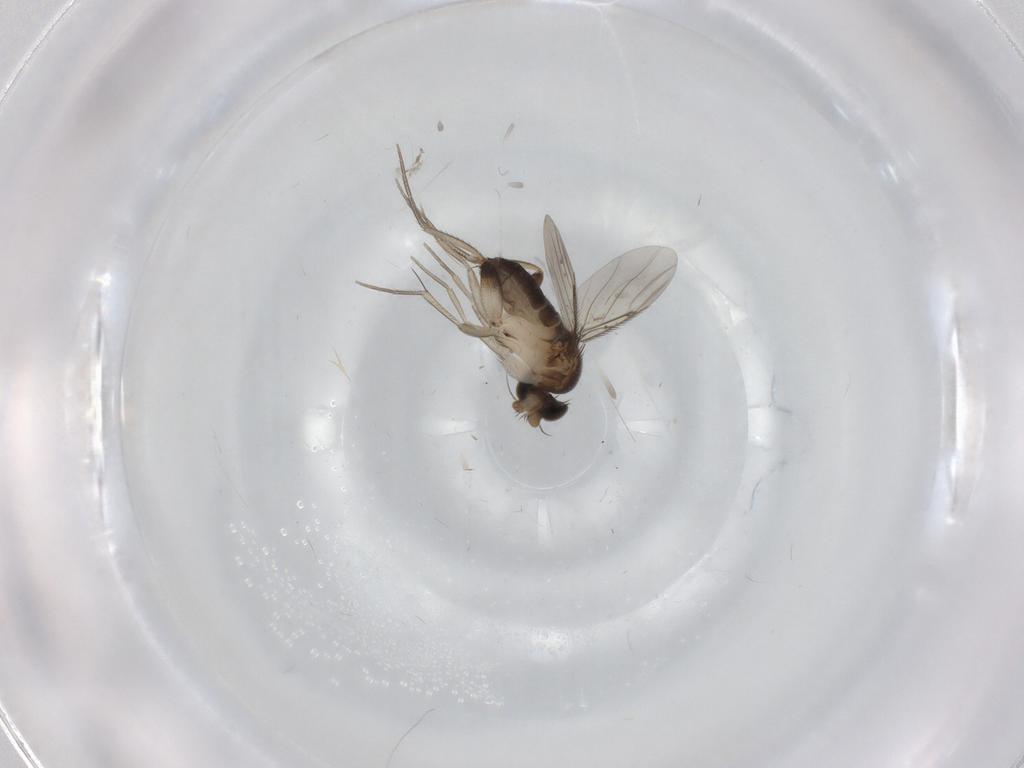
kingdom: Animalia
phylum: Arthropoda
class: Insecta
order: Diptera
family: Phoridae
